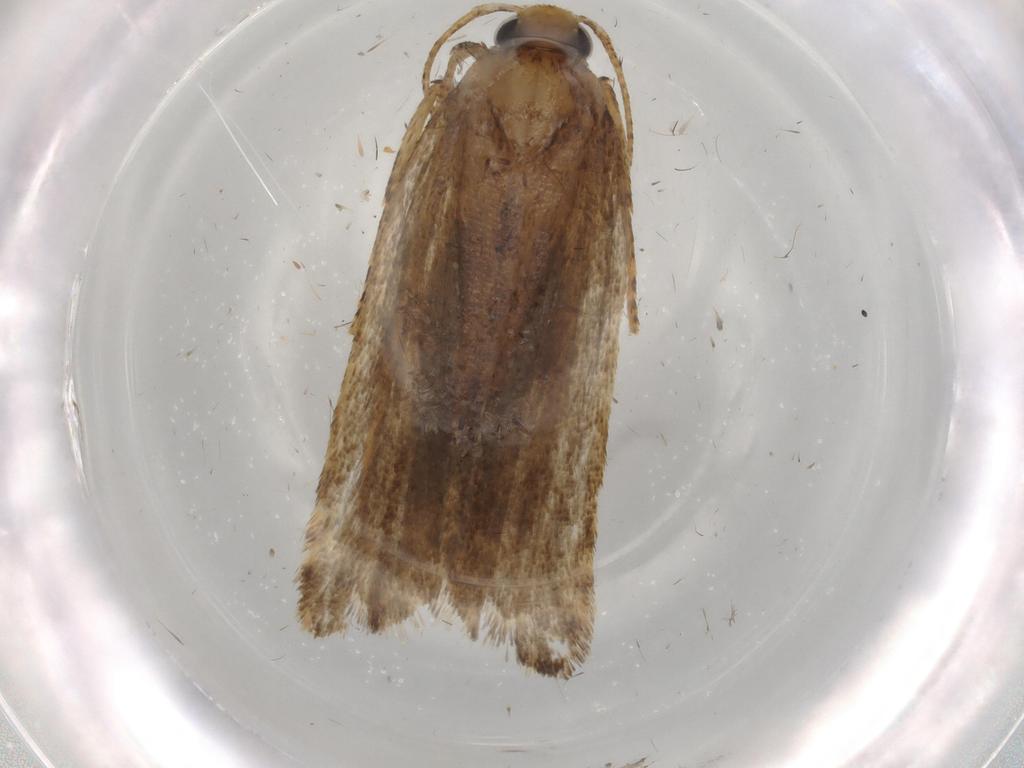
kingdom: Animalia
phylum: Arthropoda
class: Insecta
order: Lepidoptera
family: Autostichidae
